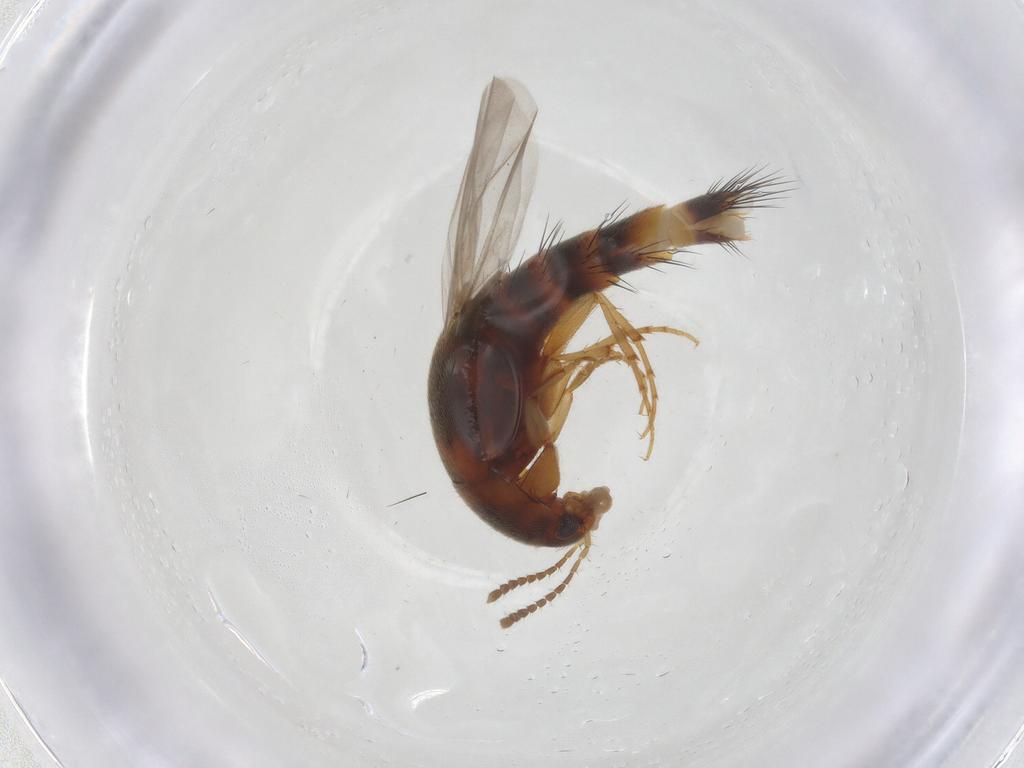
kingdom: Animalia
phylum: Arthropoda
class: Insecta
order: Coleoptera
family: Staphylinidae
